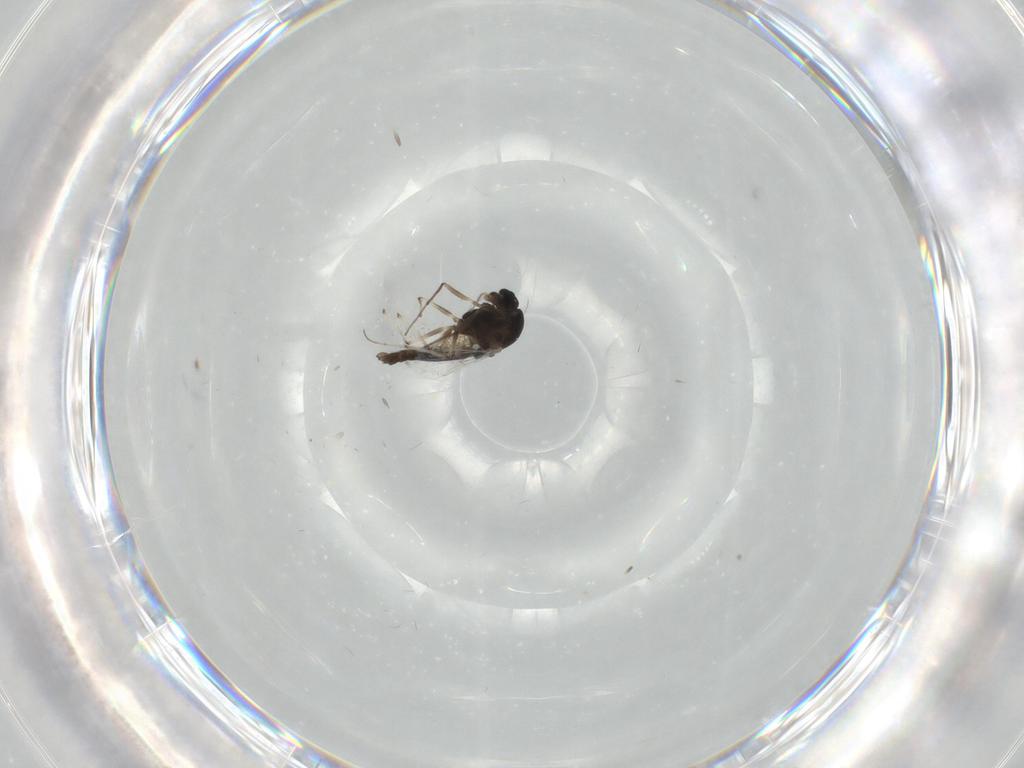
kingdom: Animalia
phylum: Arthropoda
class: Insecta
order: Diptera
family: Chironomidae
